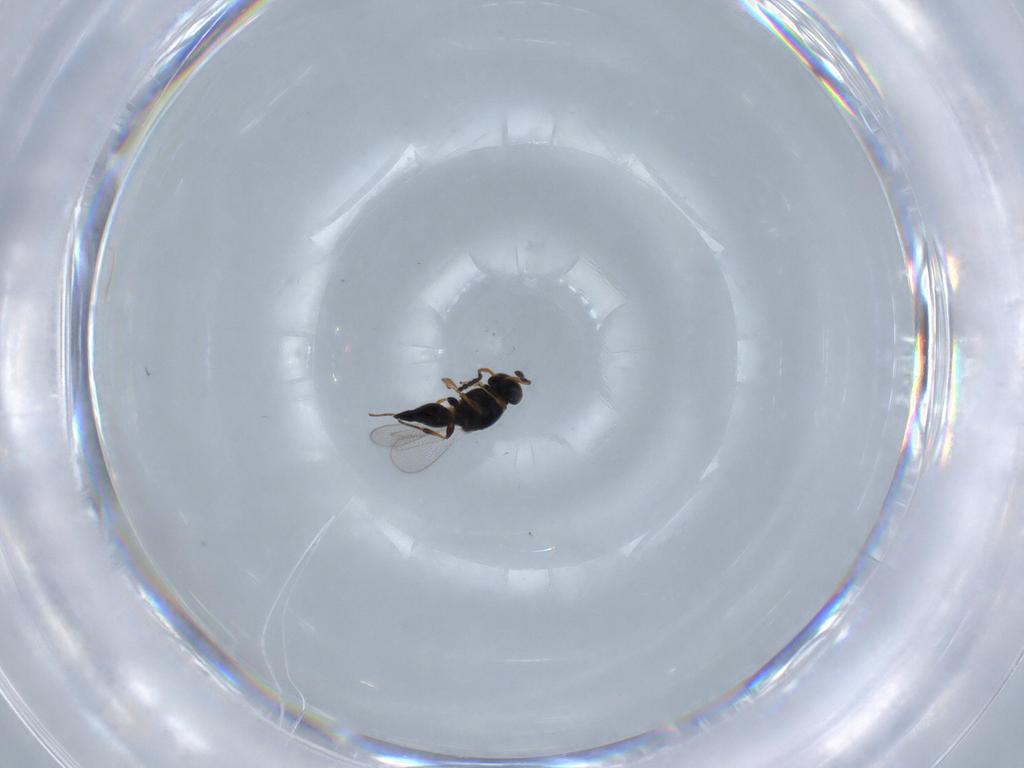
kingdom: Animalia
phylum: Arthropoda
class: Insecta
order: Hymenoptera
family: Platygastridae
